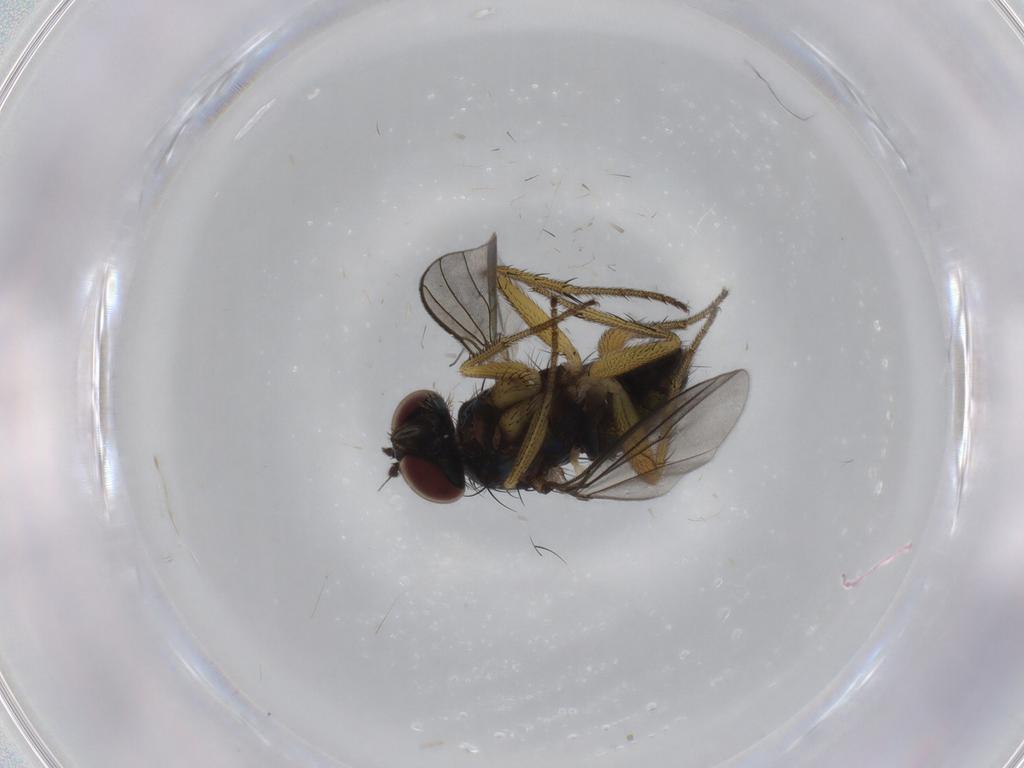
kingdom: Animalia
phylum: Arthropoda
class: Insecta
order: Diptera
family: Dolichopodidae
